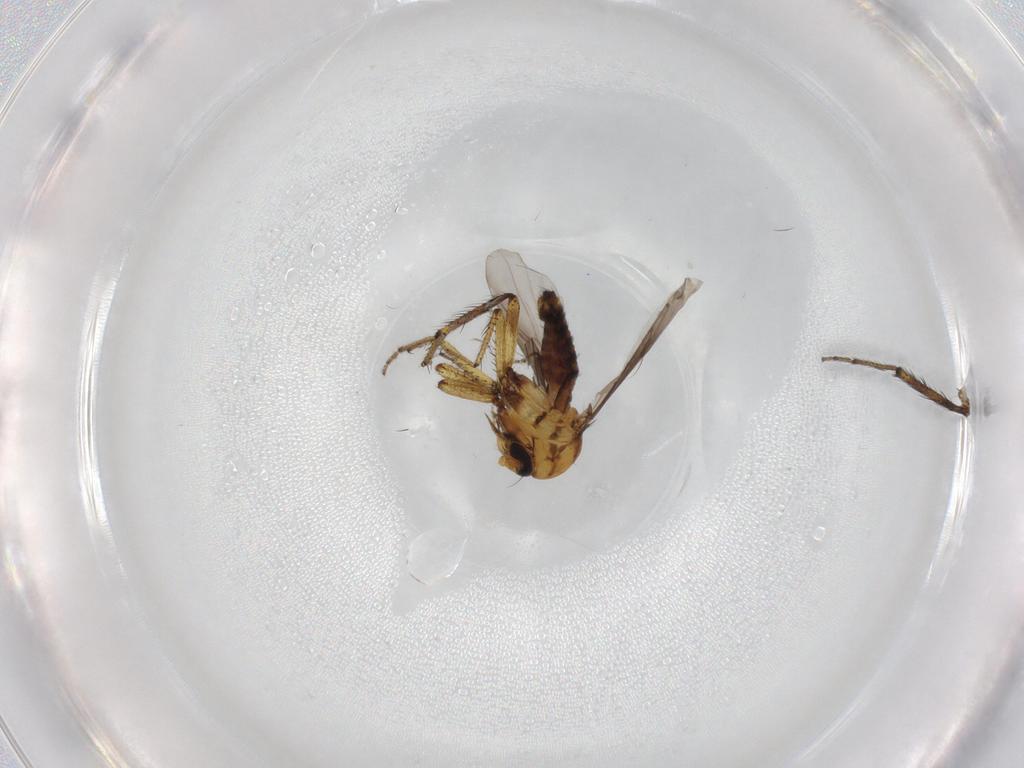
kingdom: Animalia
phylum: Arthropoda
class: Insecta
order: Diptera
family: Ceratopogonidae
